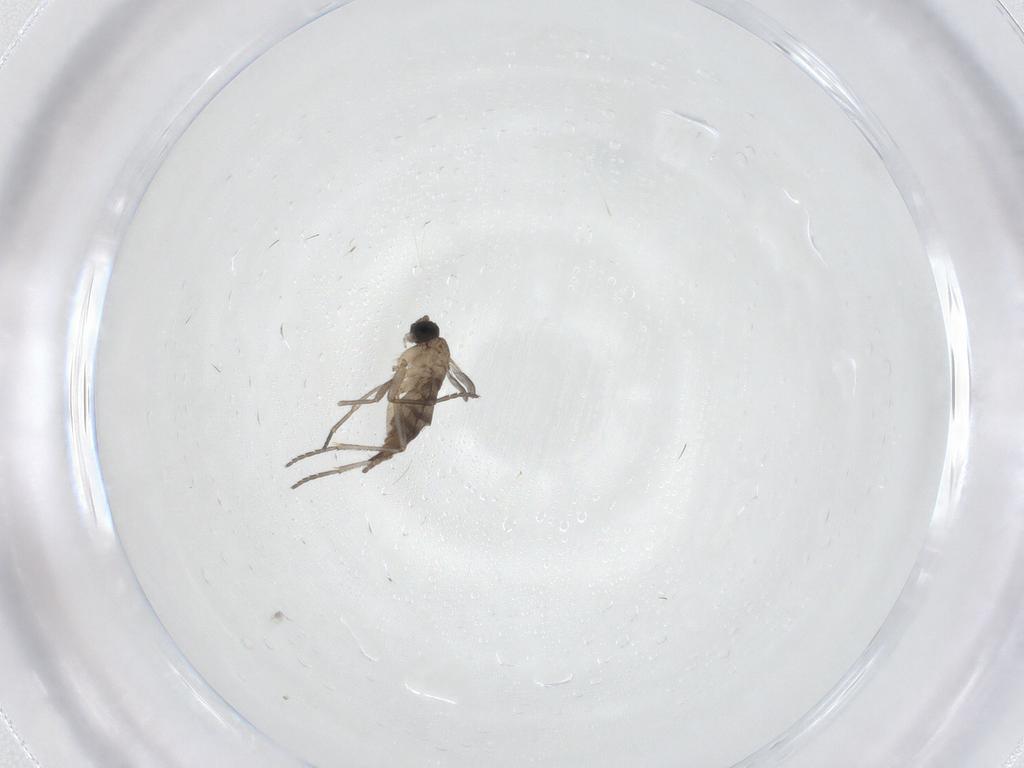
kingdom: Animalia
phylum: Arthropoda
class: Insecta
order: Diptera
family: Sciaridae
